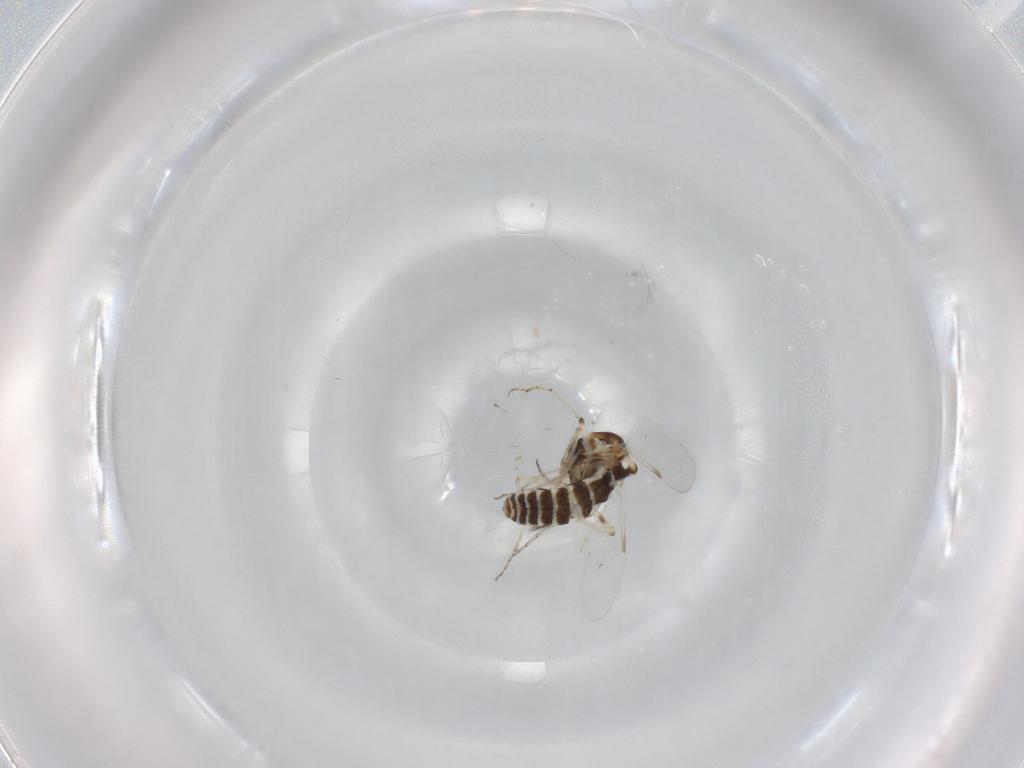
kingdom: Animalia
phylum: Arthropoda
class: Insecta
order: Diptera
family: Ceratopogonidae
